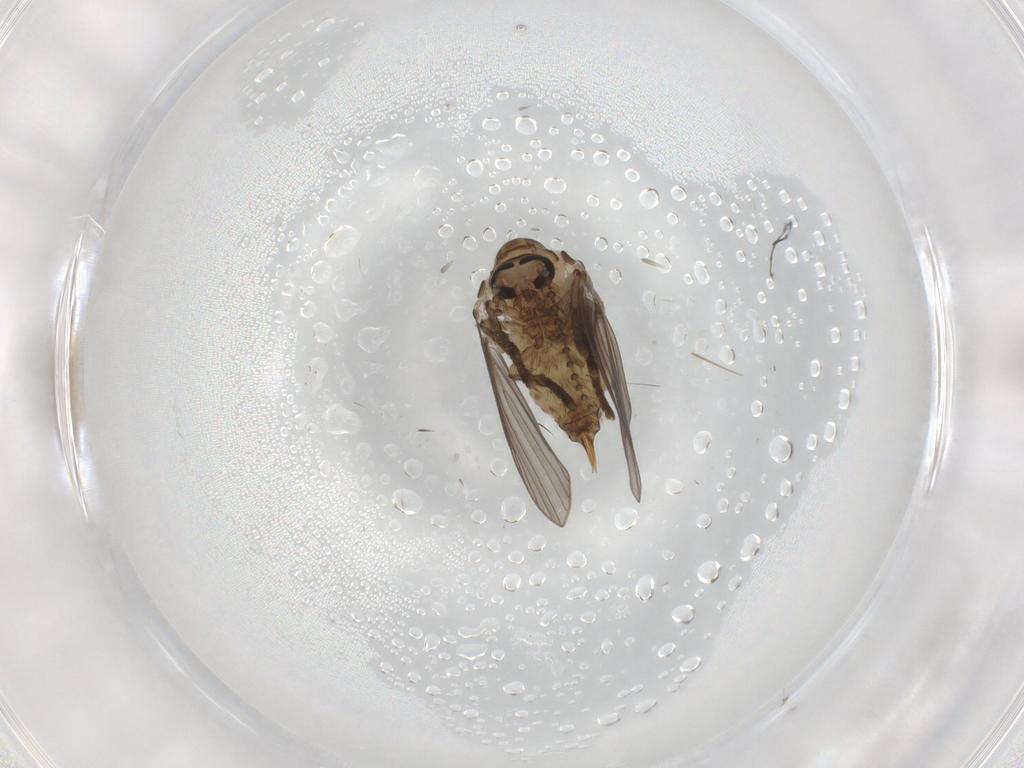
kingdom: Animalia
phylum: Arthropoda
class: Insecta
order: Diptera
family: Psychodidae
